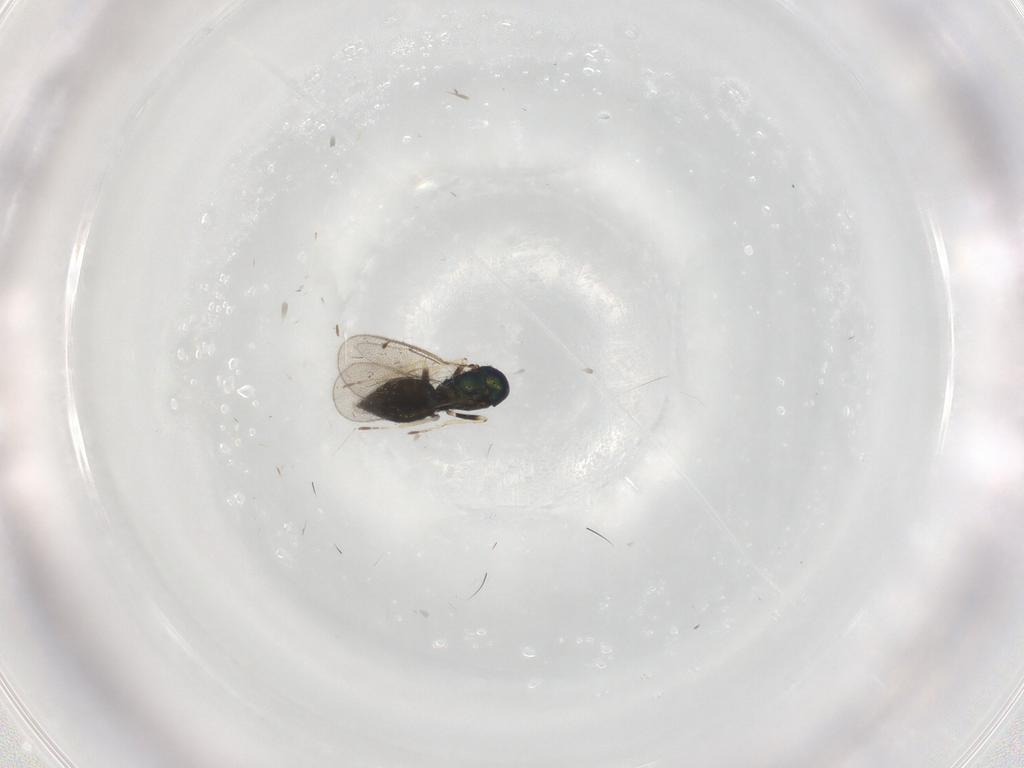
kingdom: Animalia
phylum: Arthropoda
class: Insecta
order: Hymenoptera
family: Eulophidae
